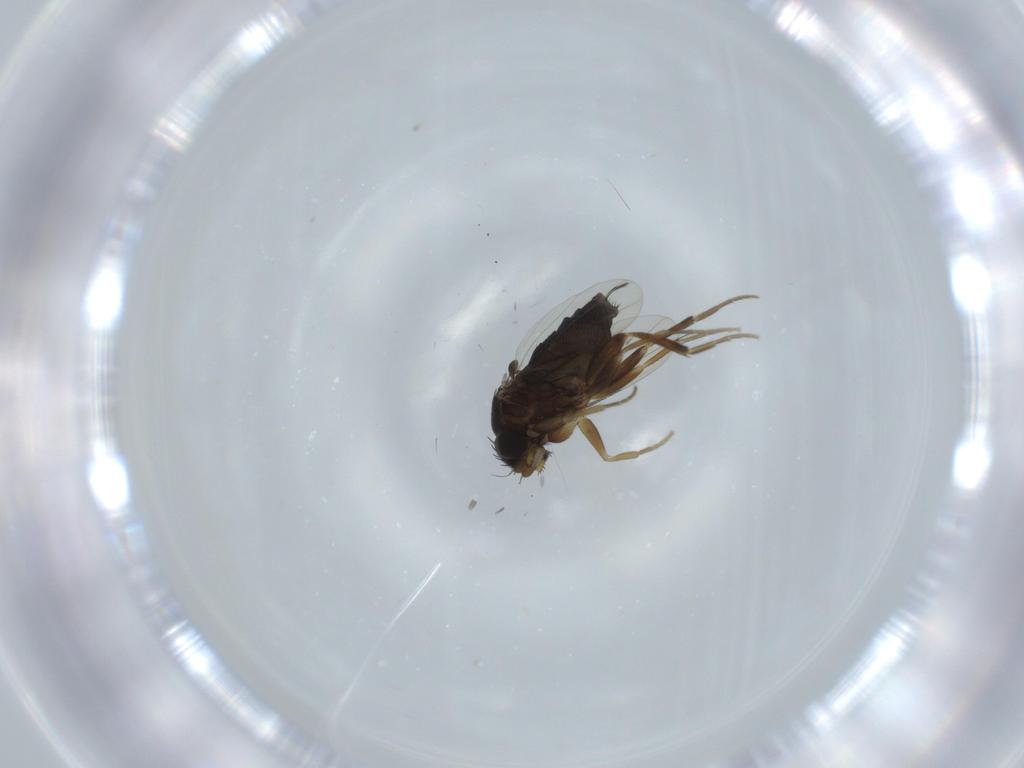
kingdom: Animalia
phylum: Arthropoda
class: Insecta
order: Diptera
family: Phoridae
